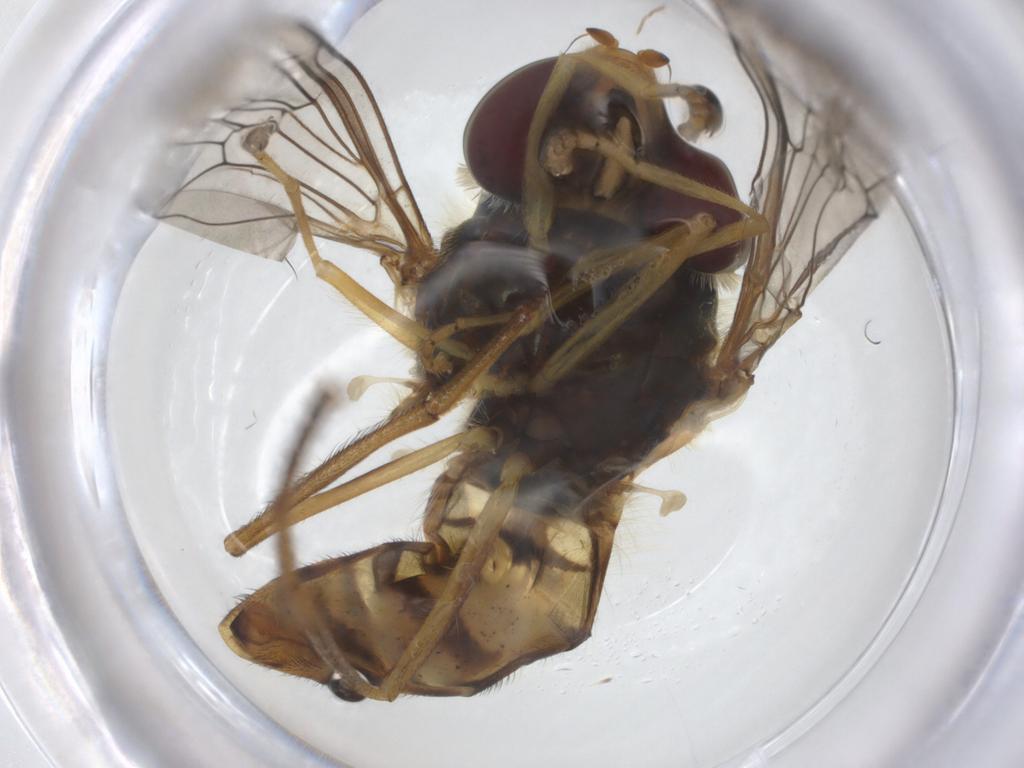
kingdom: Animalia
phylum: Arthropoda
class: Insecta
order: Diptera
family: Syrphidae
